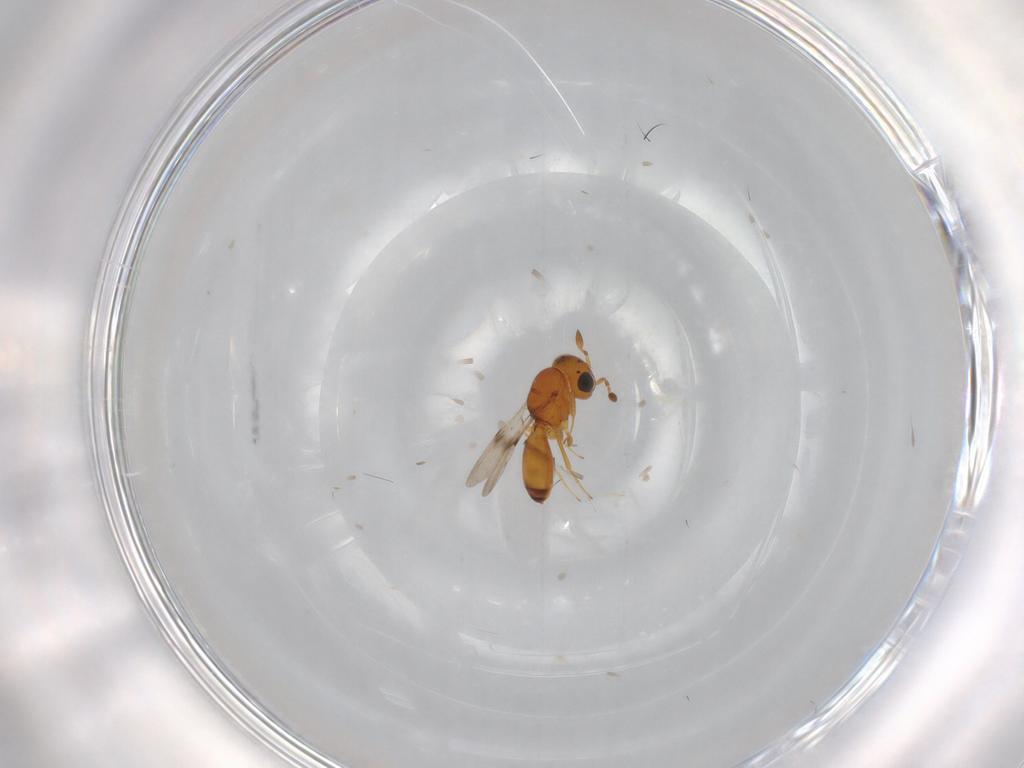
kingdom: Animalia
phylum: Arthropoda
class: Insecta
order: Hymenoptera
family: Scelionidae
